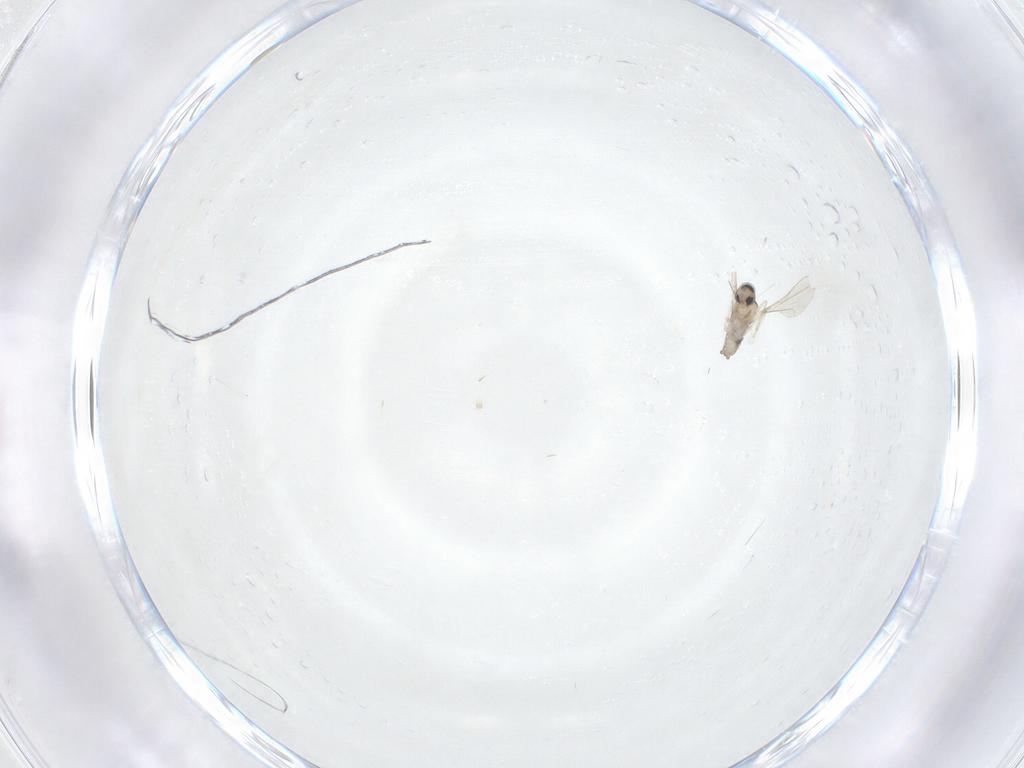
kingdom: Animalia
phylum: Arthropoda
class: Insecta
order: Diptera
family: Cecidomyiidae
